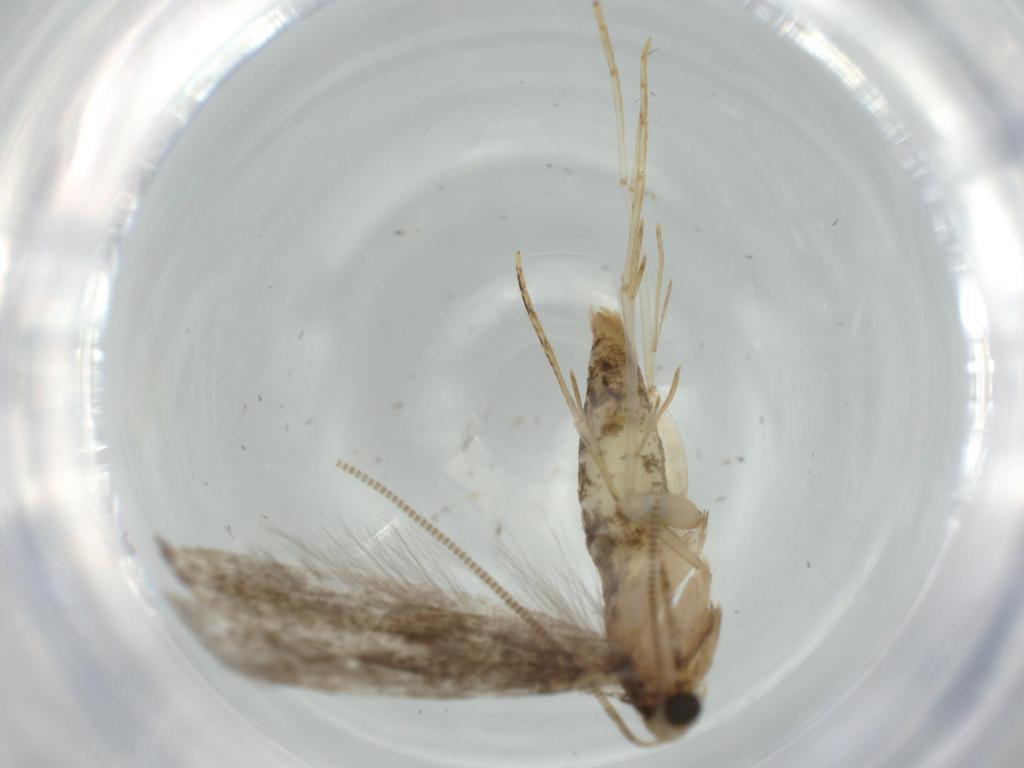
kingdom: Animalia
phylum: Arthropoda
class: Insecta
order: Lepidoptera
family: Tineidae
